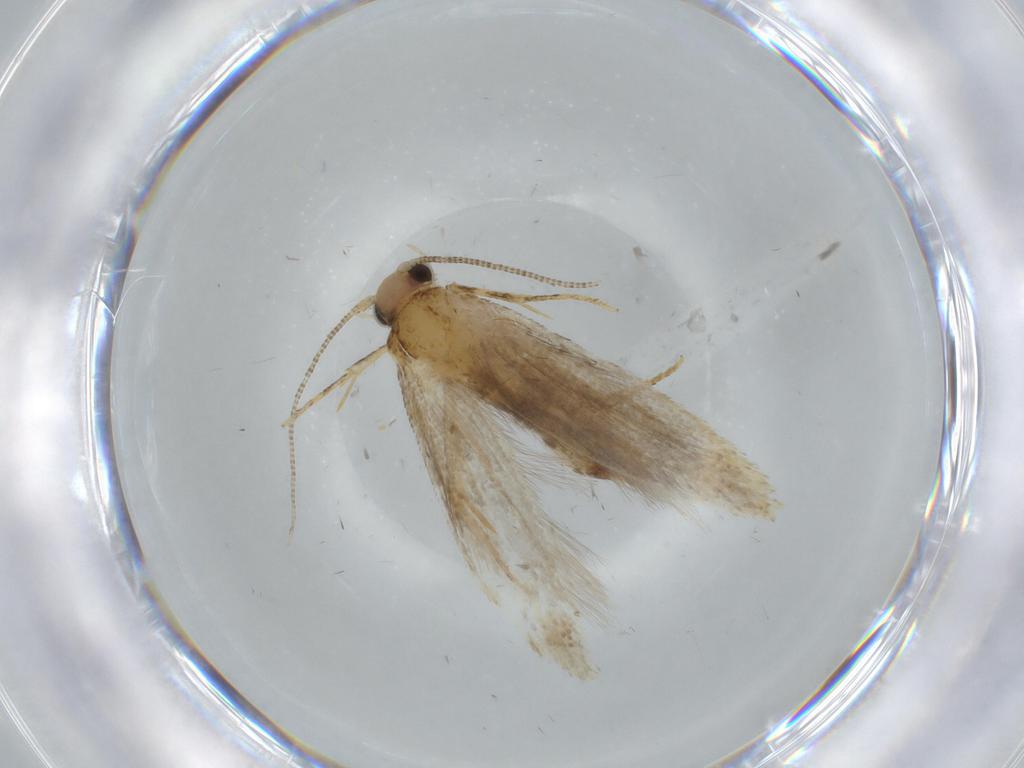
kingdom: Animalia
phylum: Arthropoda
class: Insecta
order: Lepidoptera
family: Tineidae
